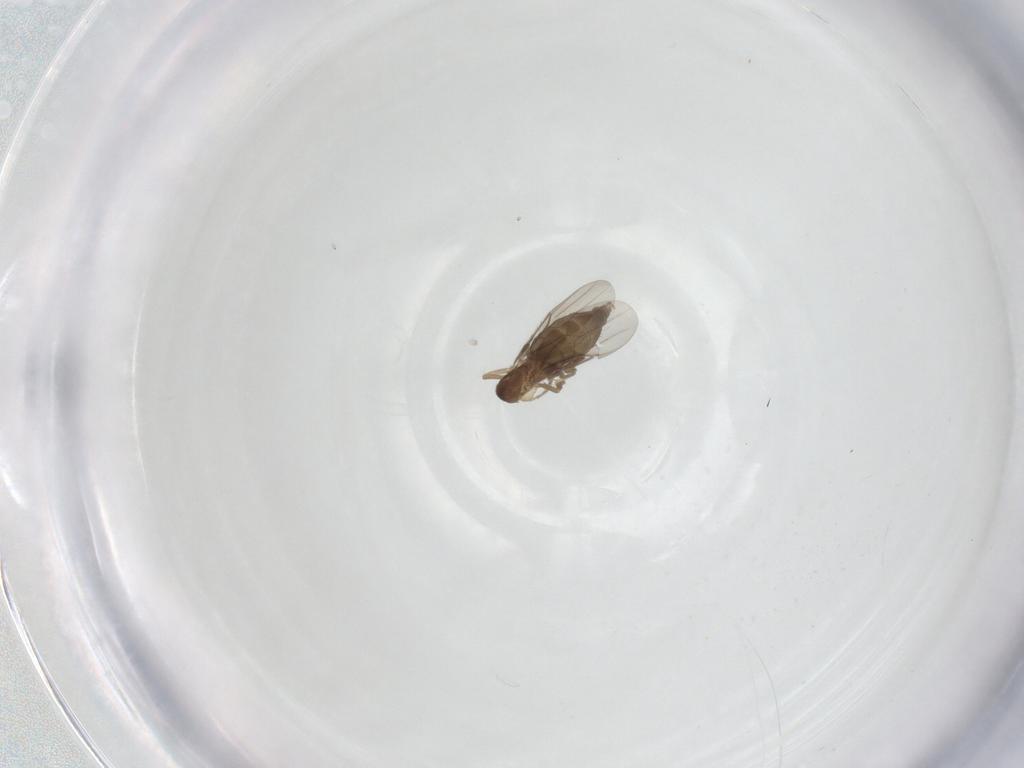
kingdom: Animalia
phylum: Arthropoda
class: Insecta
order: Diptera
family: Phoridae
